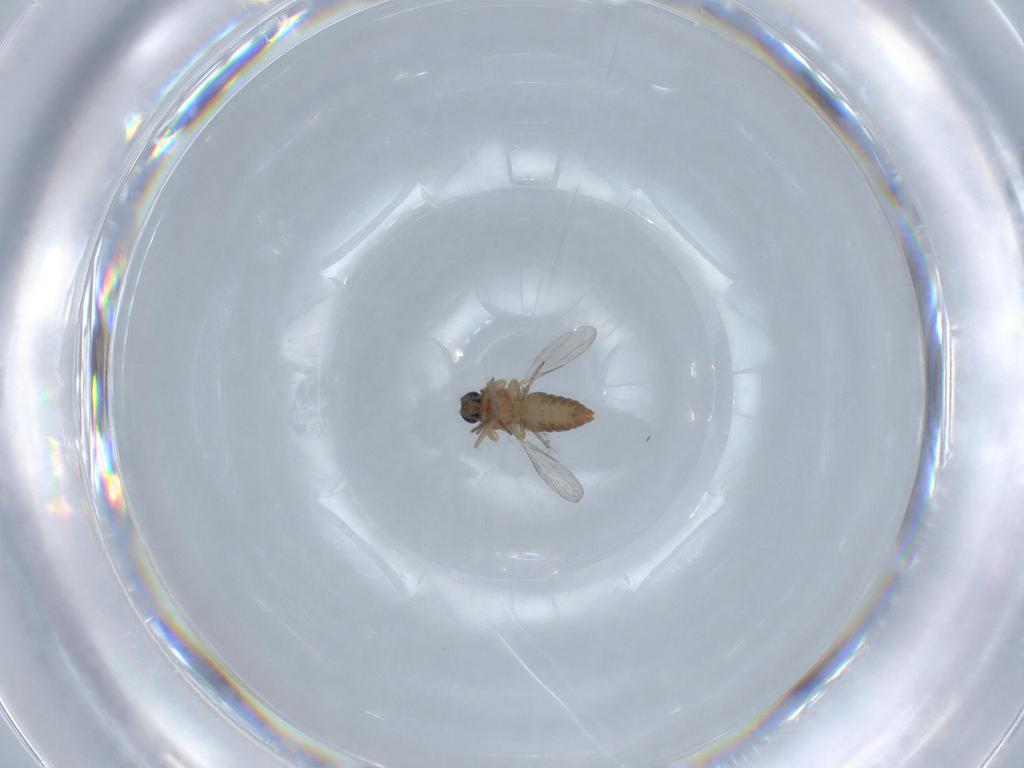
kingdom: Animalia
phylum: Arthropoda
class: Insecta
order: Diptera
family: Ceratopogonidae
